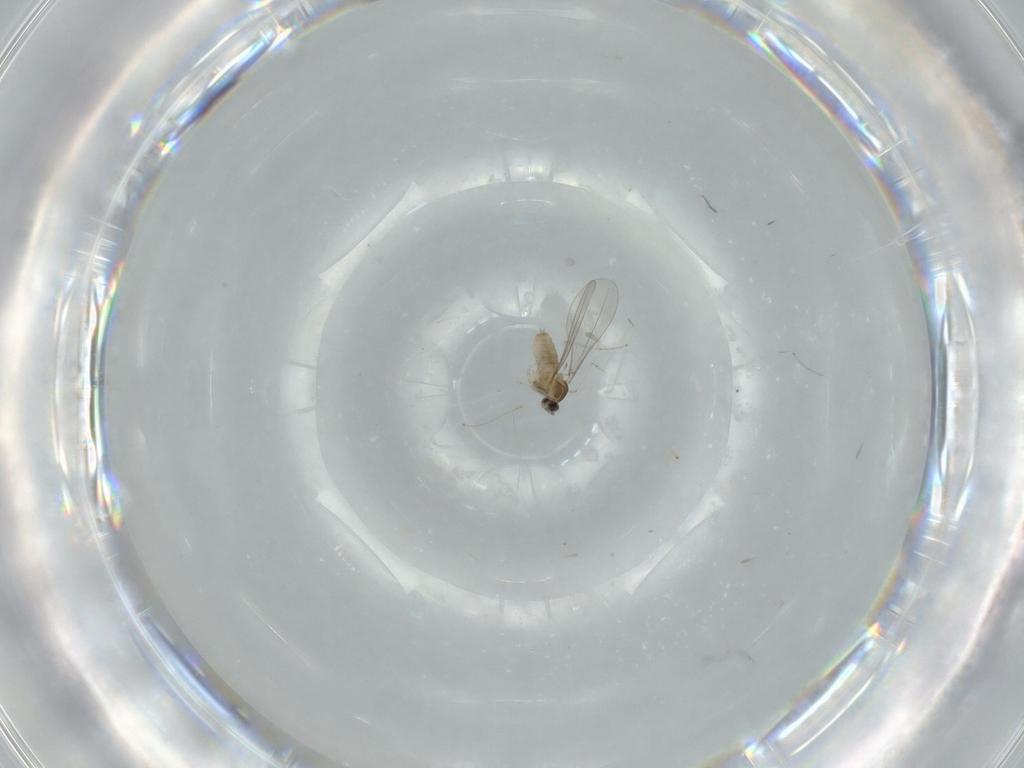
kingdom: Animalia
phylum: Arthropoda
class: Insecta
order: Diptera
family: Cecidomyiidae
